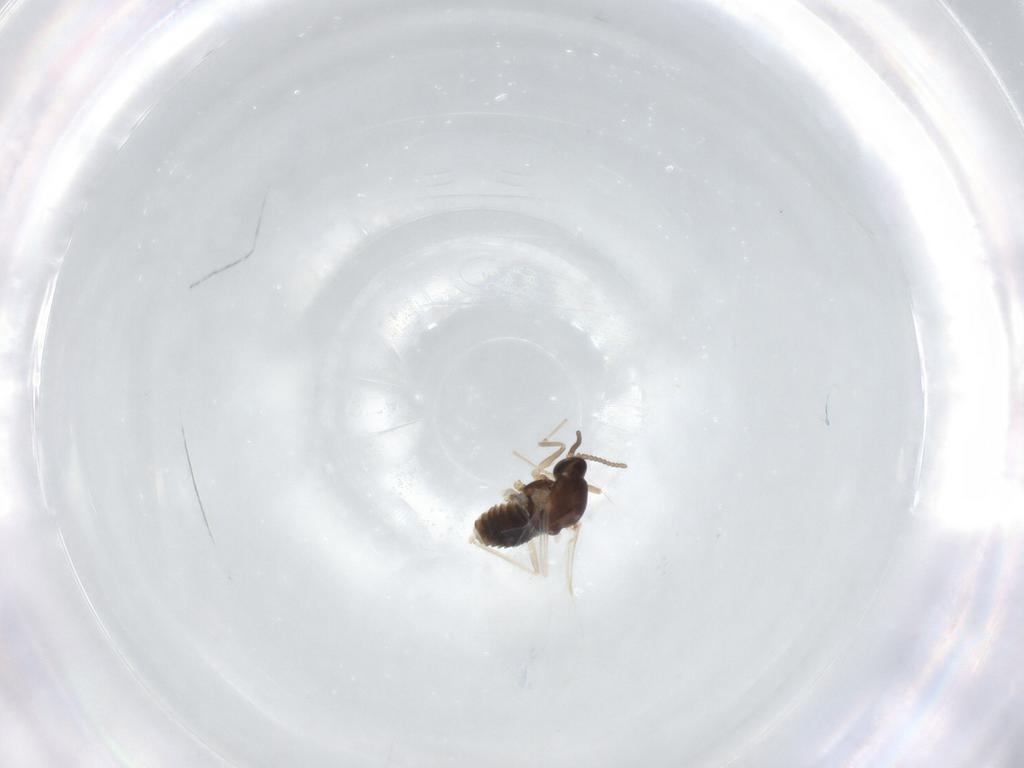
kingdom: Animalia
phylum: Arthropoda
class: Insecta
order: Diptera
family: Cecidomyiidae
